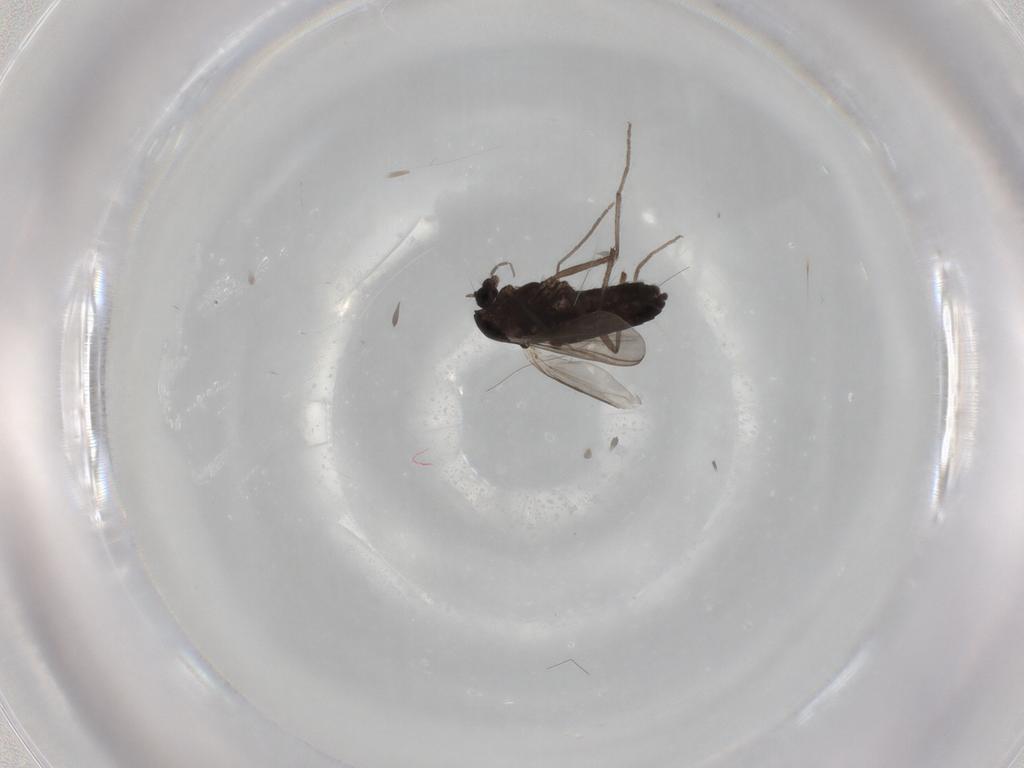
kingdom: Animalia
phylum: Arthropoda
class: Insecta
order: Diptera
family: Chironomidae
